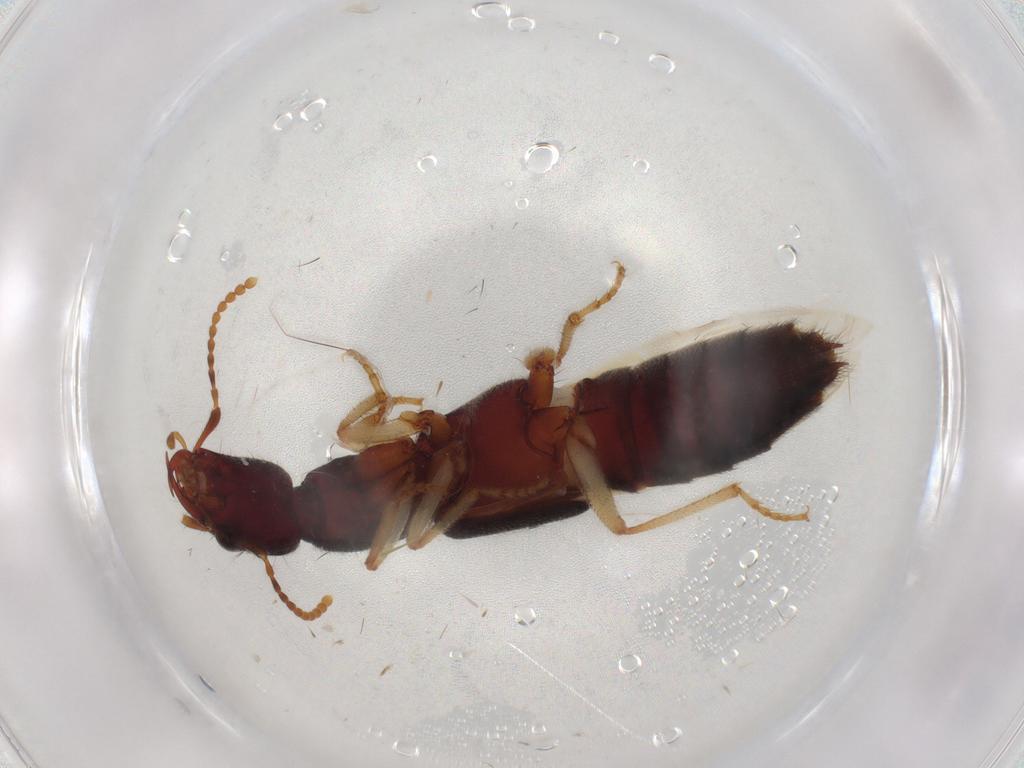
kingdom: Animalia
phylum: Arthropoda
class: Insecta
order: Coleoptera
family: Staphylinidae
